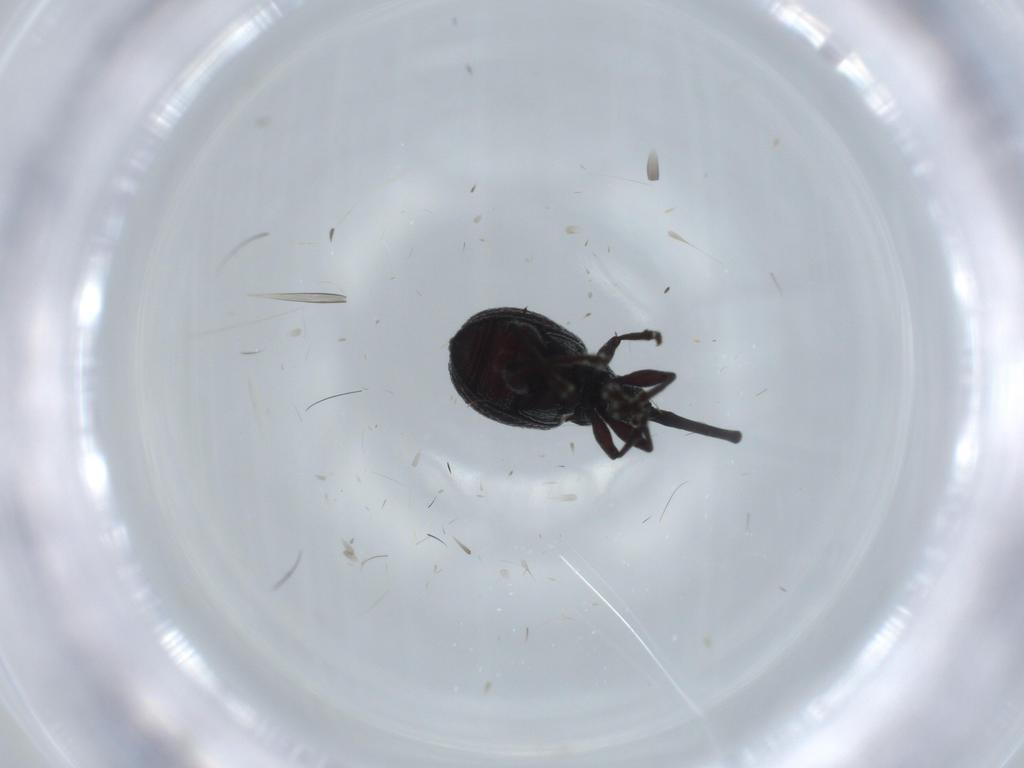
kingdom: Animalia
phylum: Arthropoda
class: Insecta
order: Coleoptera
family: Brentidae
